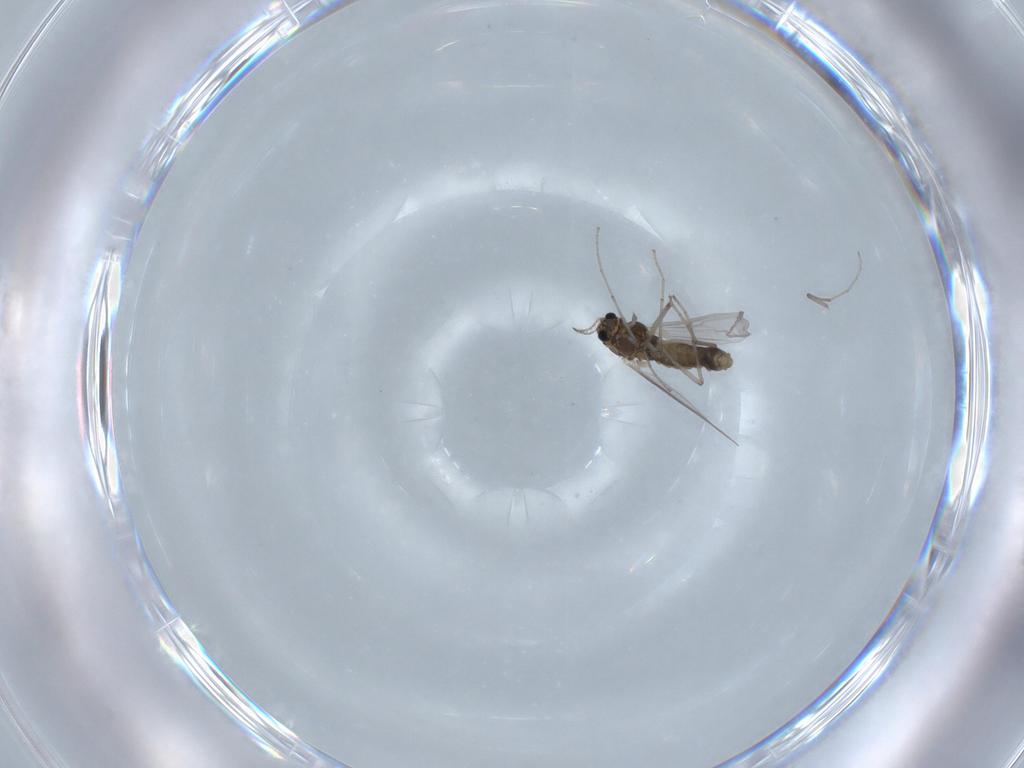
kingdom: Animalia
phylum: Arthropoda
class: Insecta
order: Diptera
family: Chironomidae
